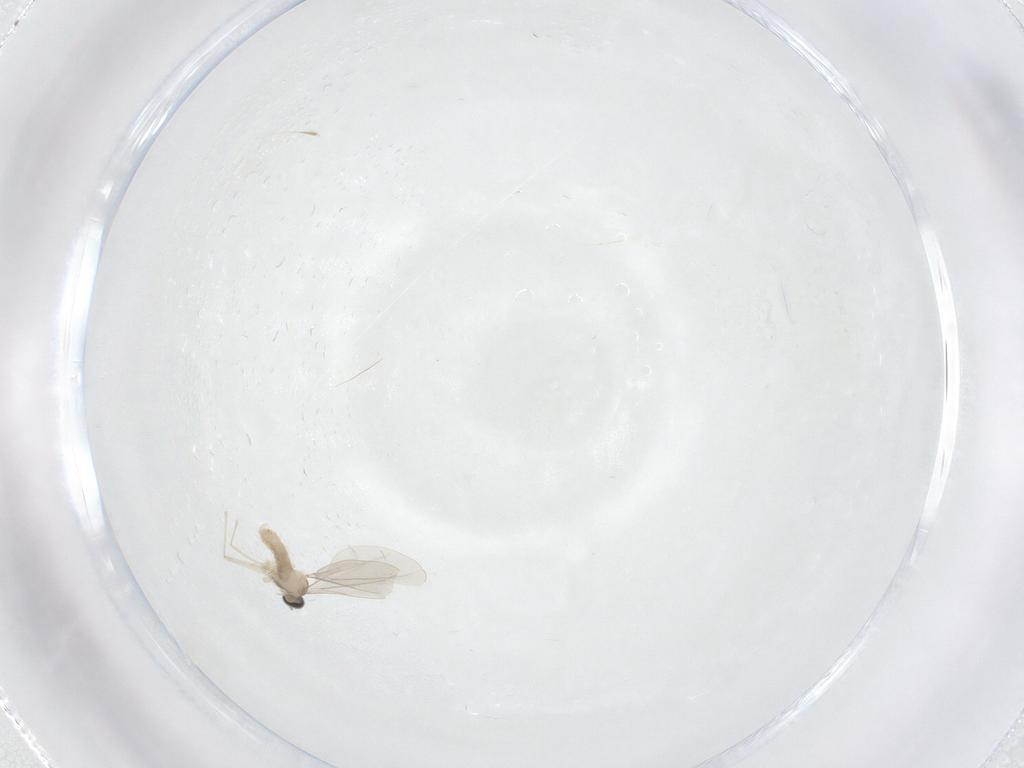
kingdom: Animalia
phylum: Arthropoda
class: Insecta
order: Diptera
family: Cecidomyiidae
